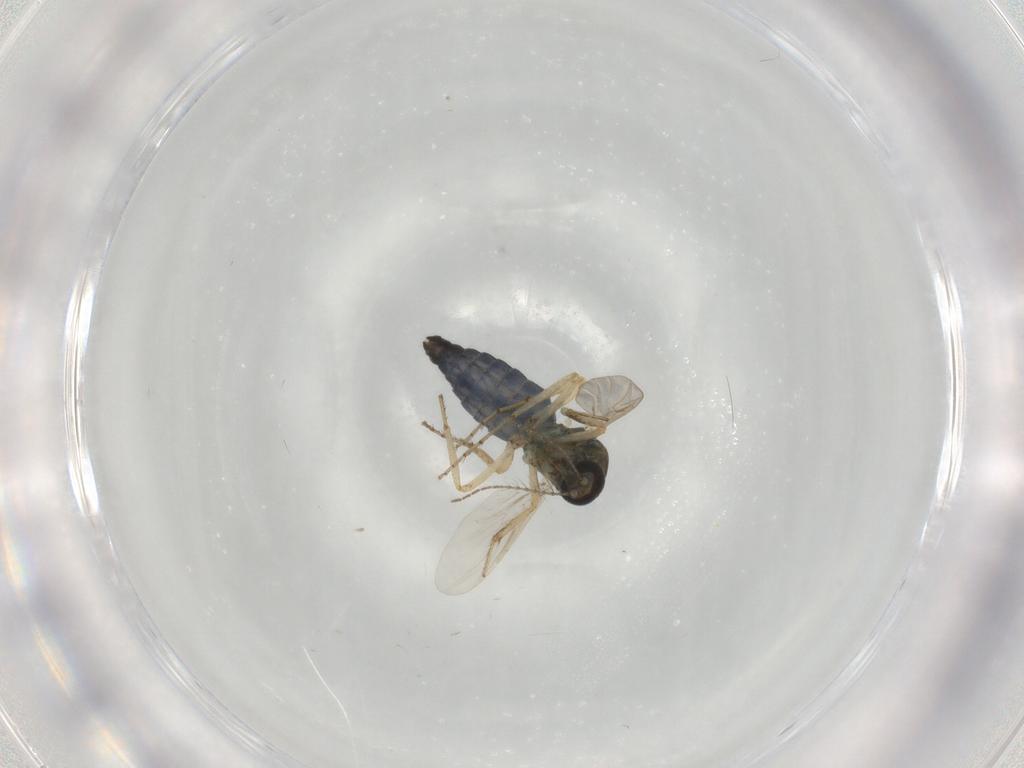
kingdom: Animalia
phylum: Arthropoda
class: Insecta
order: Diptera
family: Ceratopogonidae
